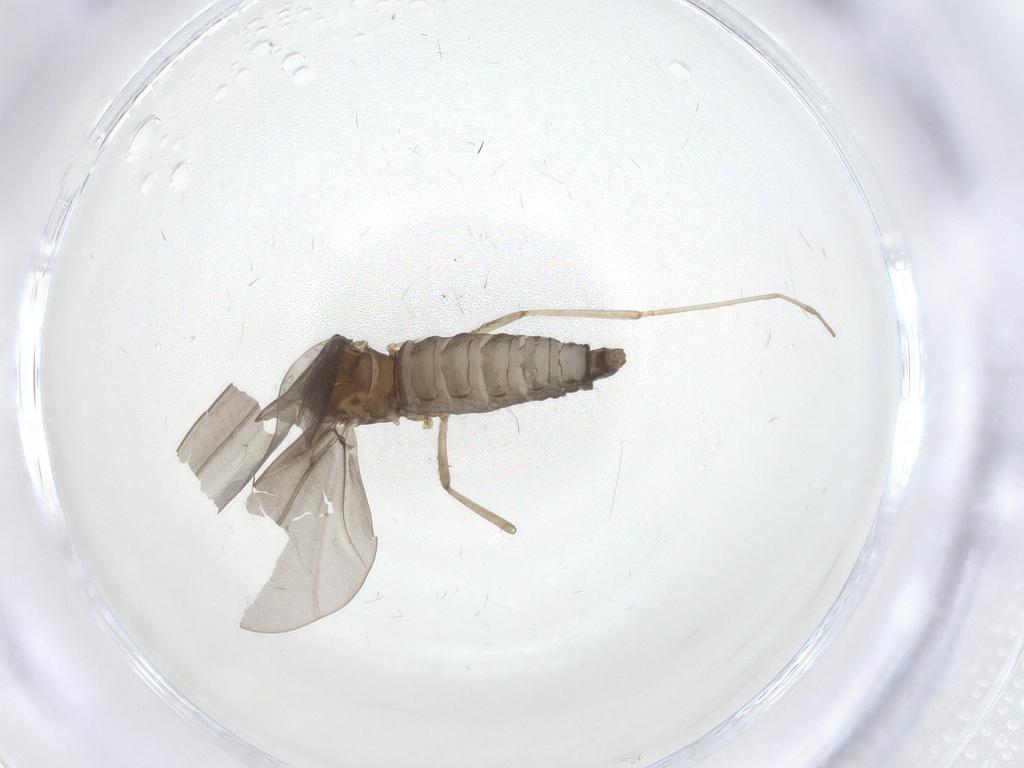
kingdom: Animalia
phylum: Arthropoda
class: Insecta
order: Diptera
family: Cecidomyiidae
